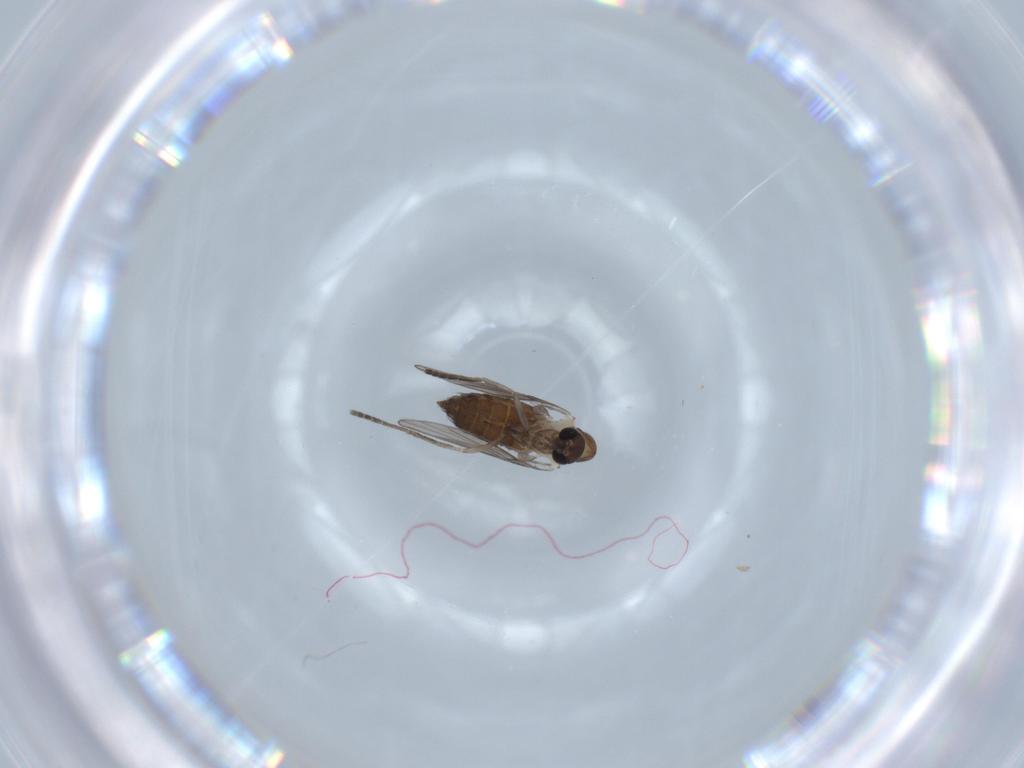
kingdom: Animalia
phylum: Arthropoda
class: Insecta
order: Diptera
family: Psychodidae
